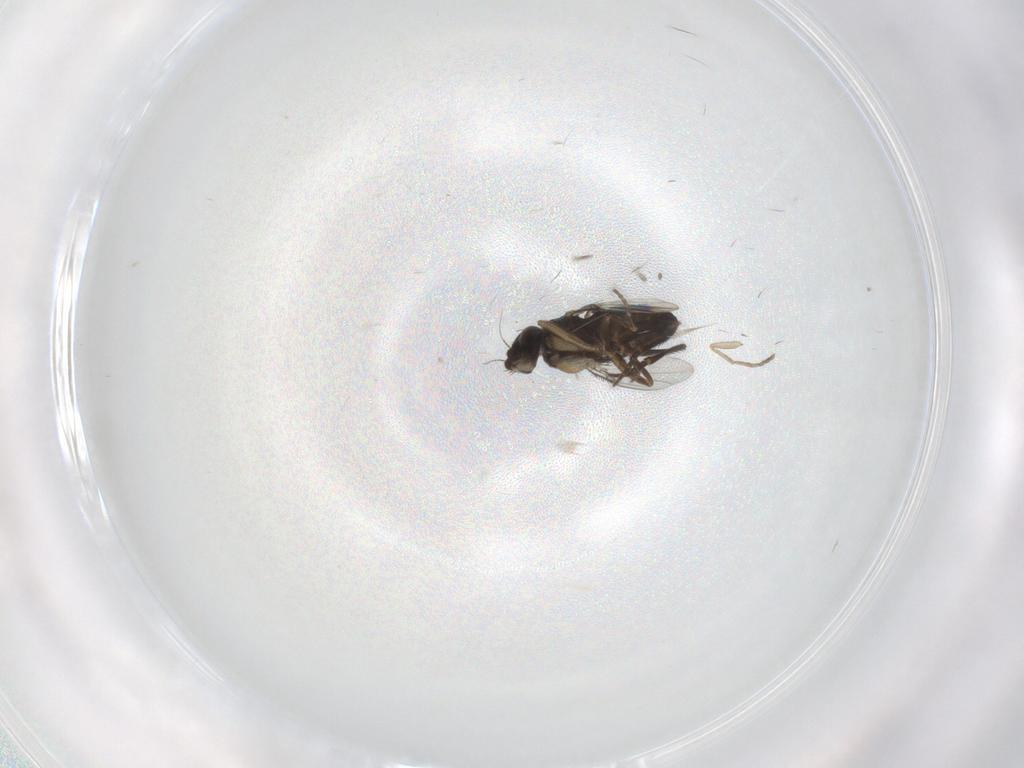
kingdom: Animalia
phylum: Arthropoda
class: Insecta
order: Diptera
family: Phoridae
